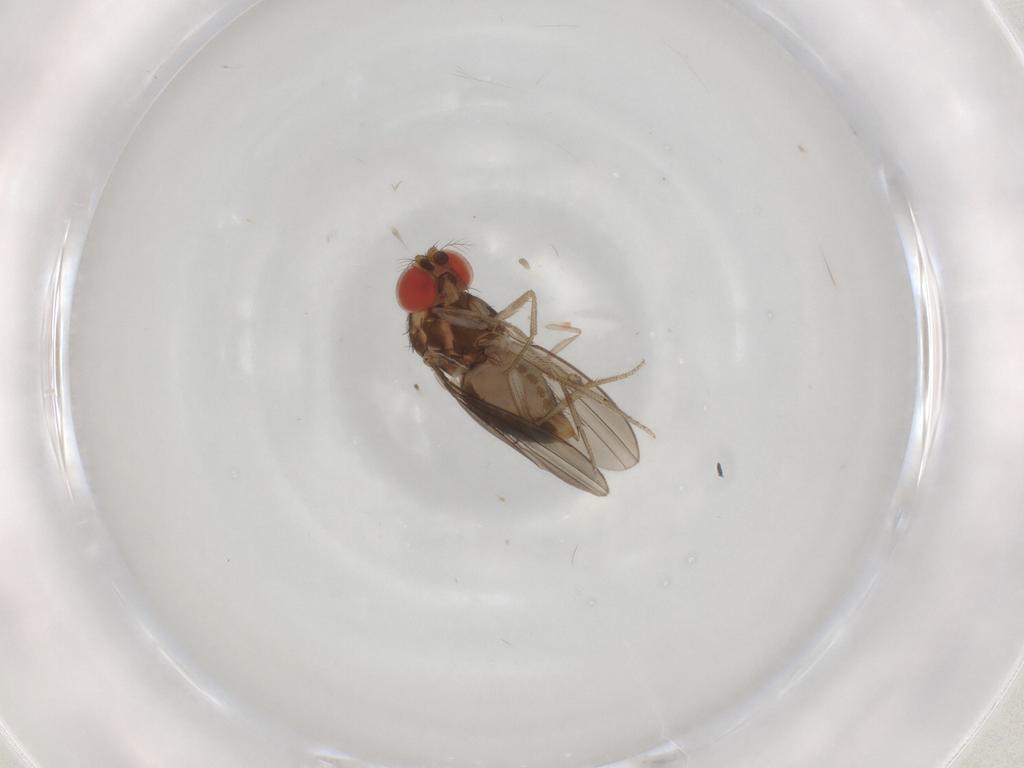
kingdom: Animalia
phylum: Arthropoda
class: Insecta
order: Diptera
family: Drosophilidae
